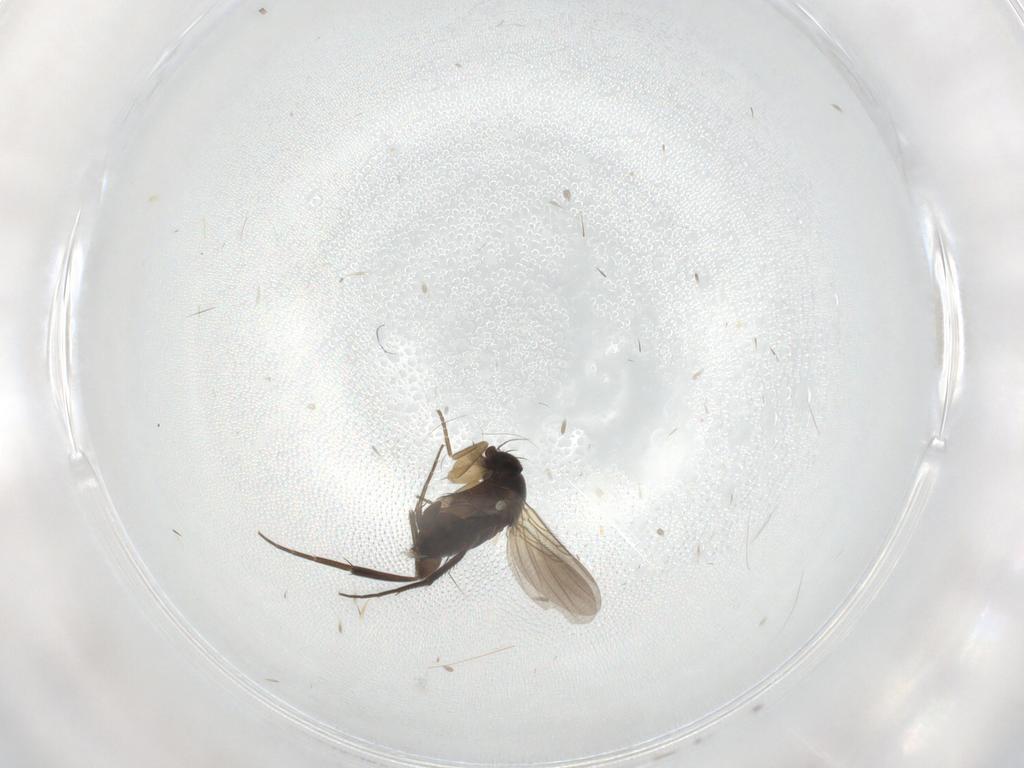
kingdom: Animalia
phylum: Arthropoda
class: Insecta
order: Diptera
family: Phoridae
